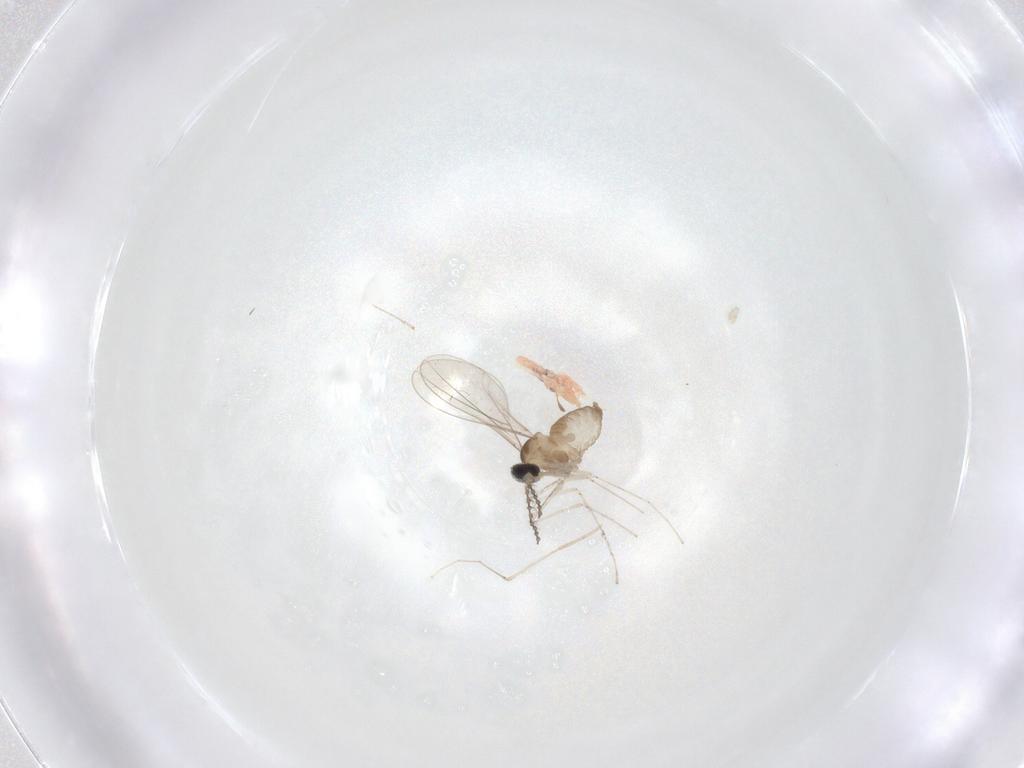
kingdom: Animalia
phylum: Arthropoda
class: Insecta
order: Diptera
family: Cecidomyiidae
